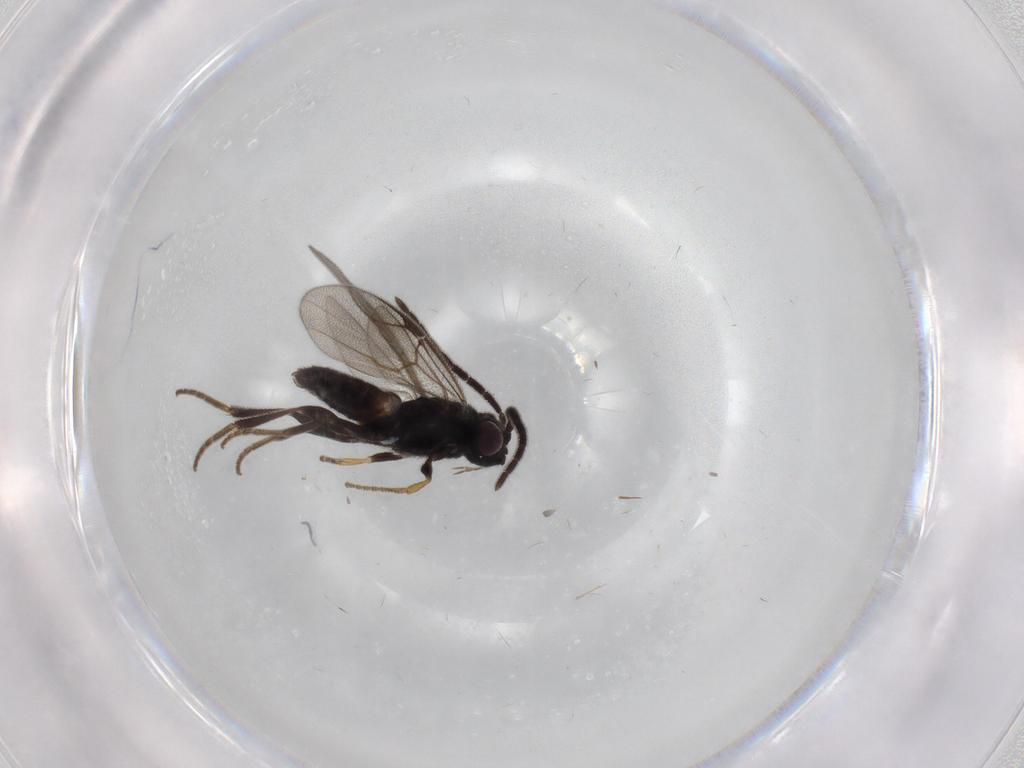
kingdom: Animalia
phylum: Arthropoda
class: Insecta
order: Hymenoptera
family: Dryinidae
